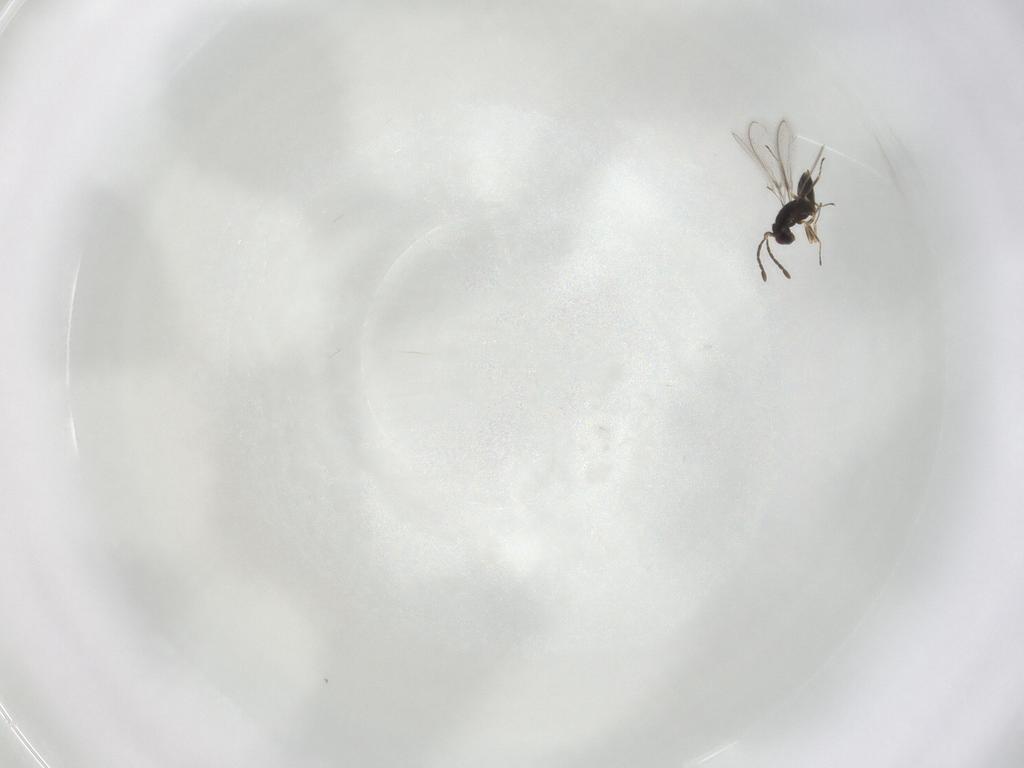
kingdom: Animalia
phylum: Arthropoda
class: Insecta
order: Hymenoptera
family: Mymaridae
